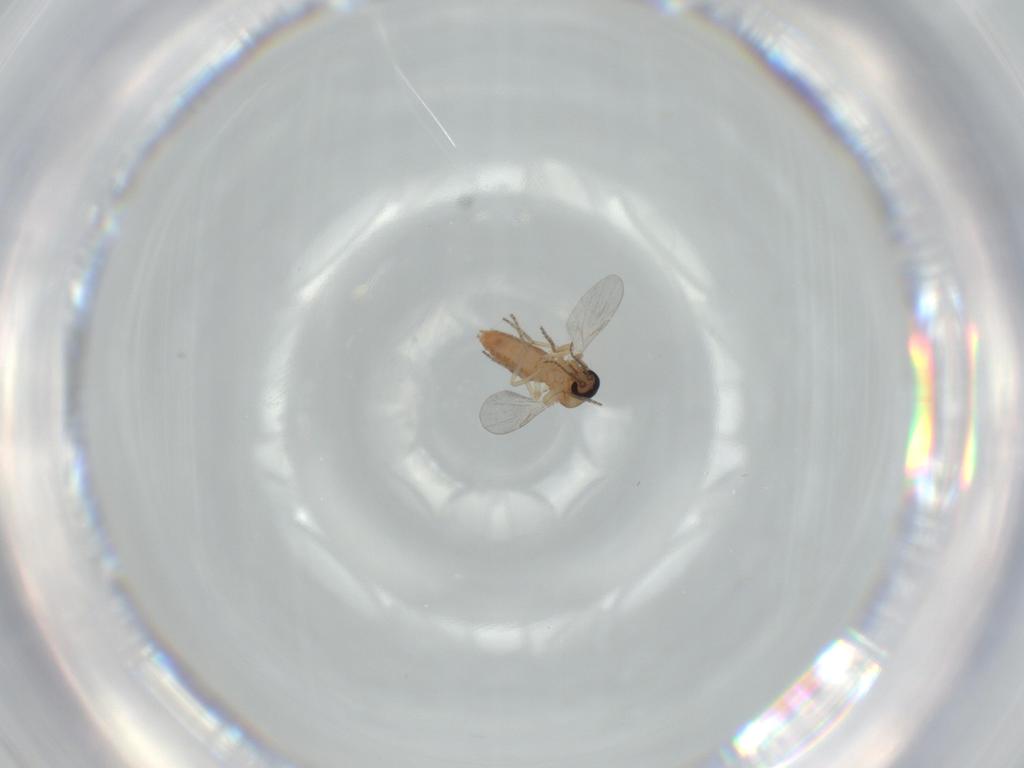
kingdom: Animalia
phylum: Arthropoda
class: Insecta
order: Diptera
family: Ceratopogonidae
